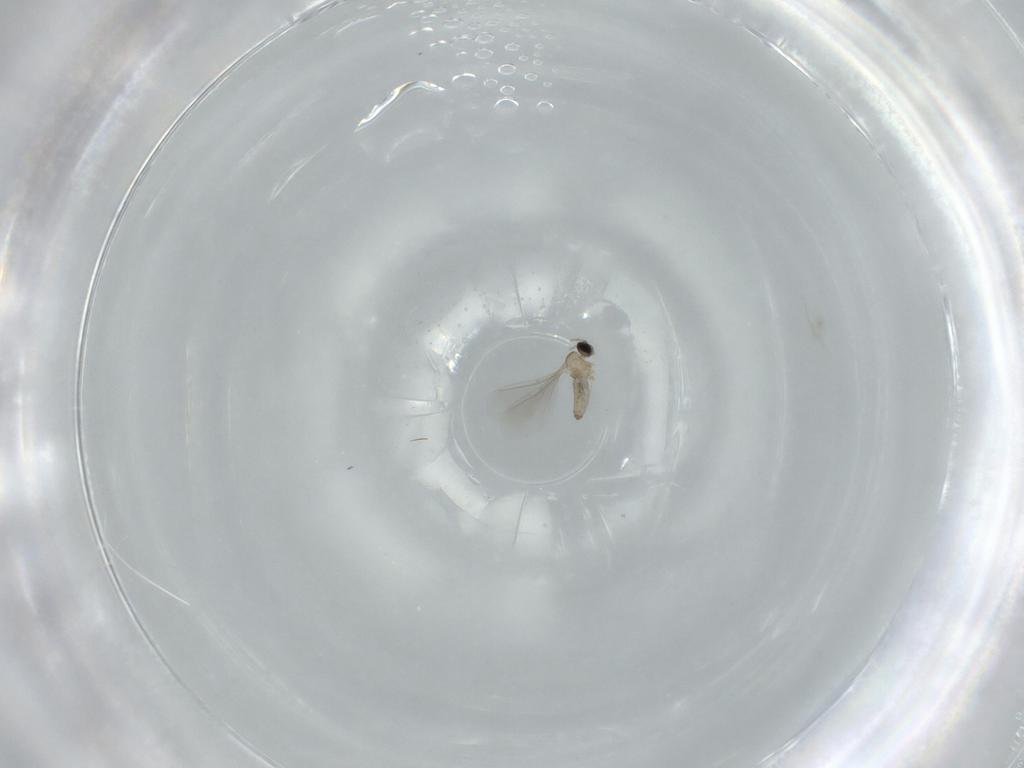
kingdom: Animalia
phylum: Arthropoda
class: Insecta
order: Diptera
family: Cecidomyiidae
